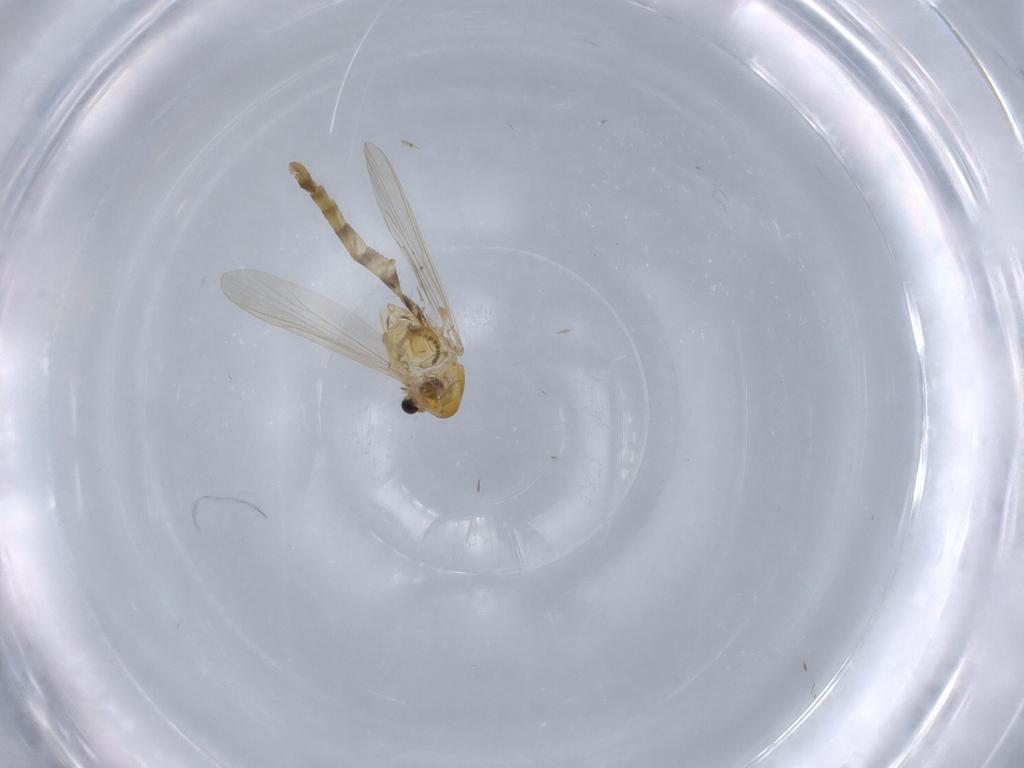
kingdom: Animalia
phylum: Arthropoda
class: Insecta
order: Diptera
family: Chironomidae
